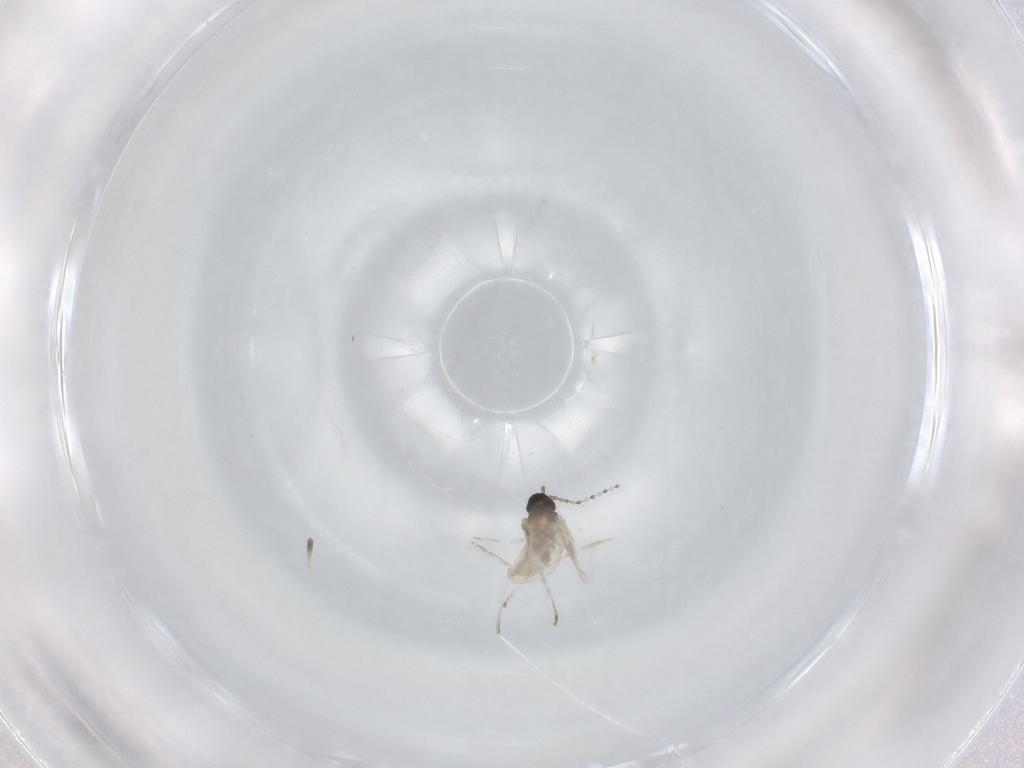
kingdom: Animalia
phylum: Arthropoda
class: Insecta
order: Diptera
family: Cecidomyiidae
